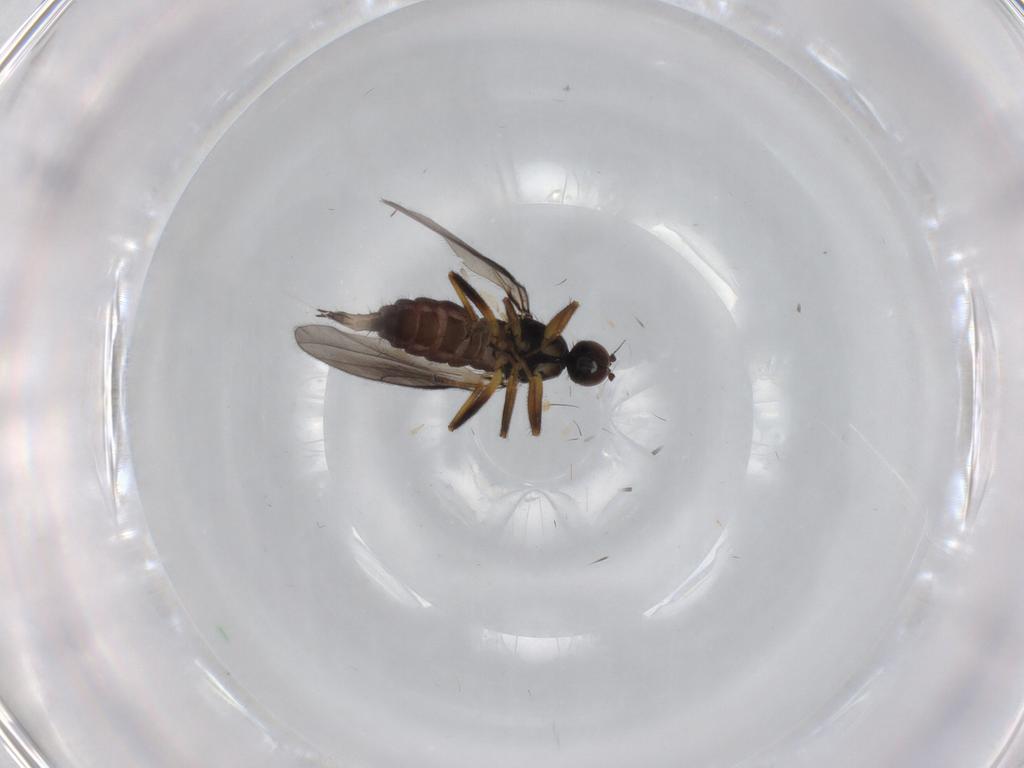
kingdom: Animalia
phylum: Arthropoda
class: Insecta
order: Diptera
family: Hybotidae
